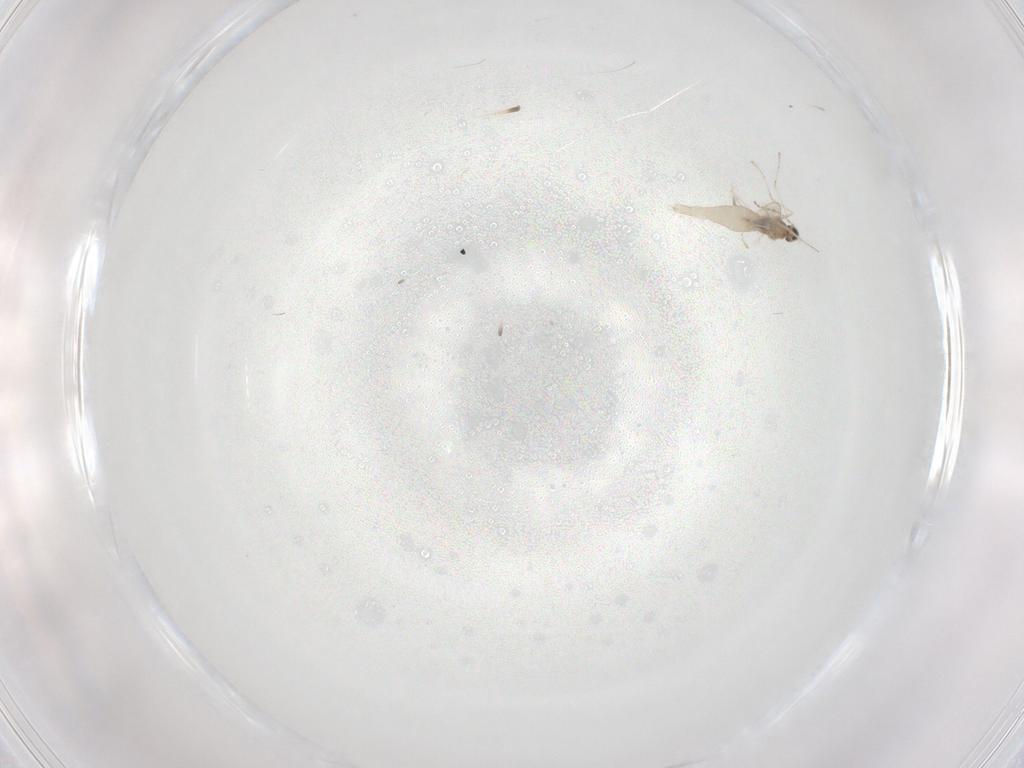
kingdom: Animalia
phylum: Arthropoda
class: Insecta
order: Diptera
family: Cecidomyiidae
